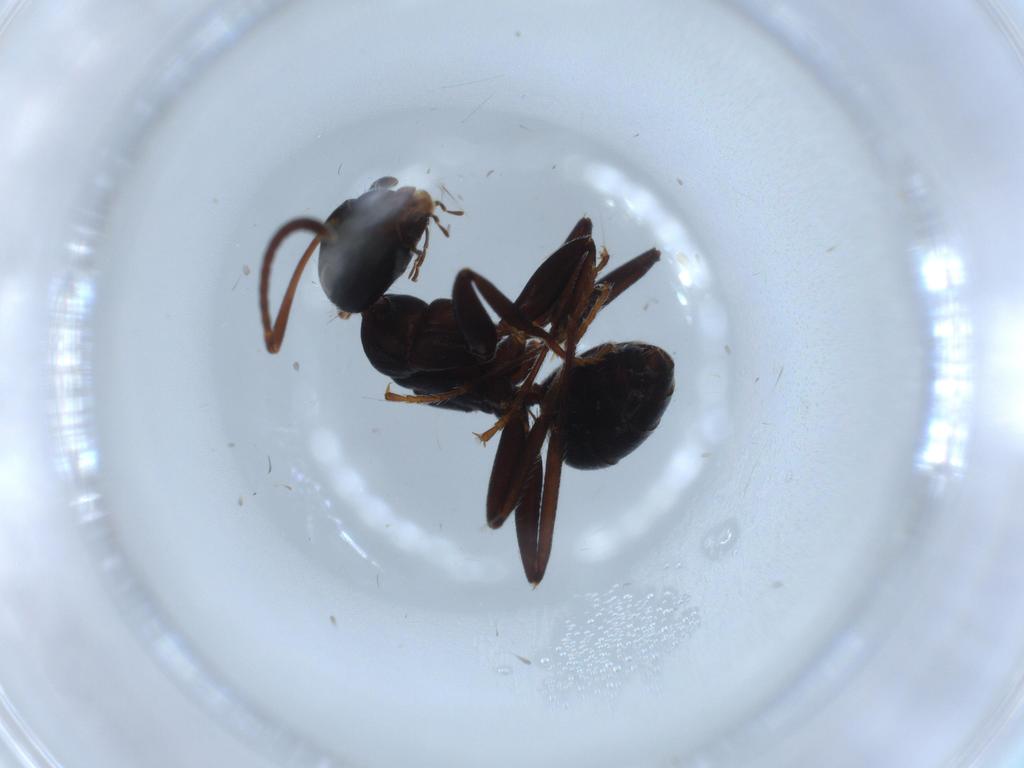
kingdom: Animalia
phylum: Arthropoda
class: Insecta
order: Hymenoptera
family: Formicidae
